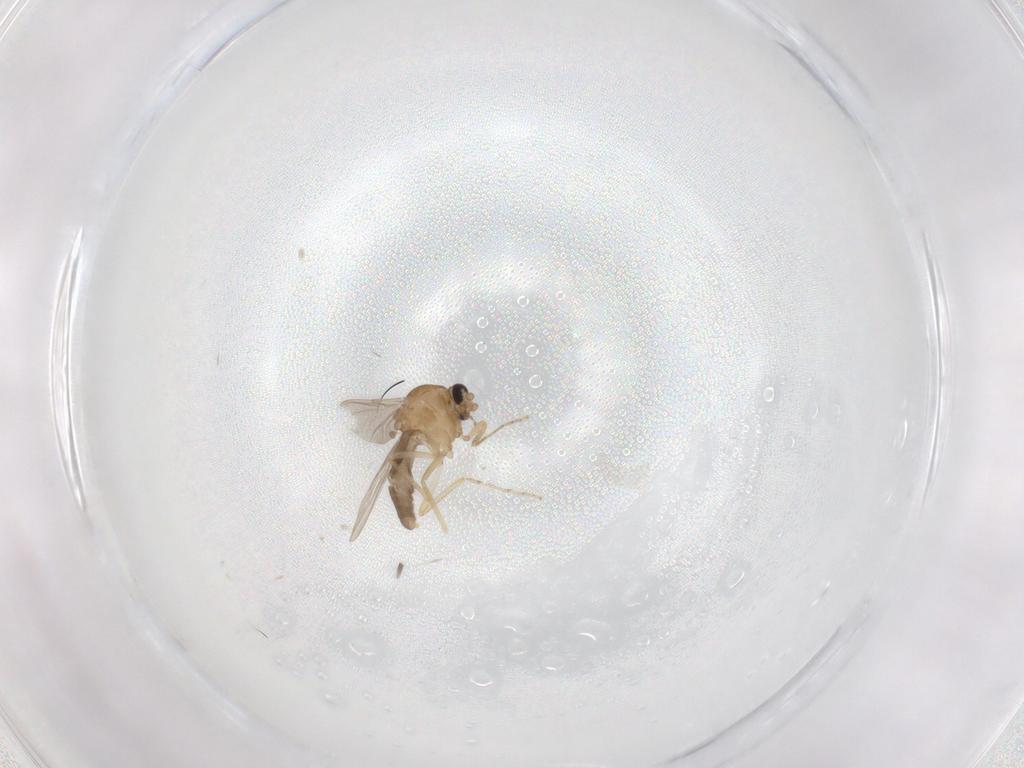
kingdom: Animalia
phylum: Arthropoda
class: Insecta
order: Diptera
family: Ceratopogonidae
